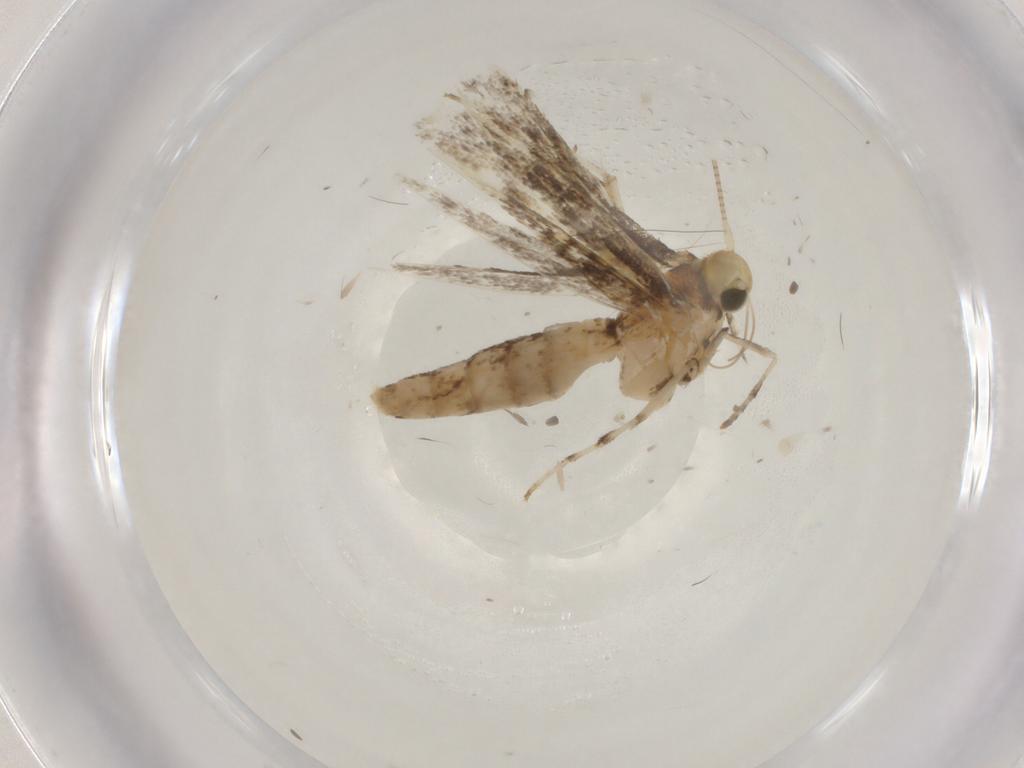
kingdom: Animalia
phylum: Arthropoda
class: Insecta
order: Lepidoptera
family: Gracillariidae
